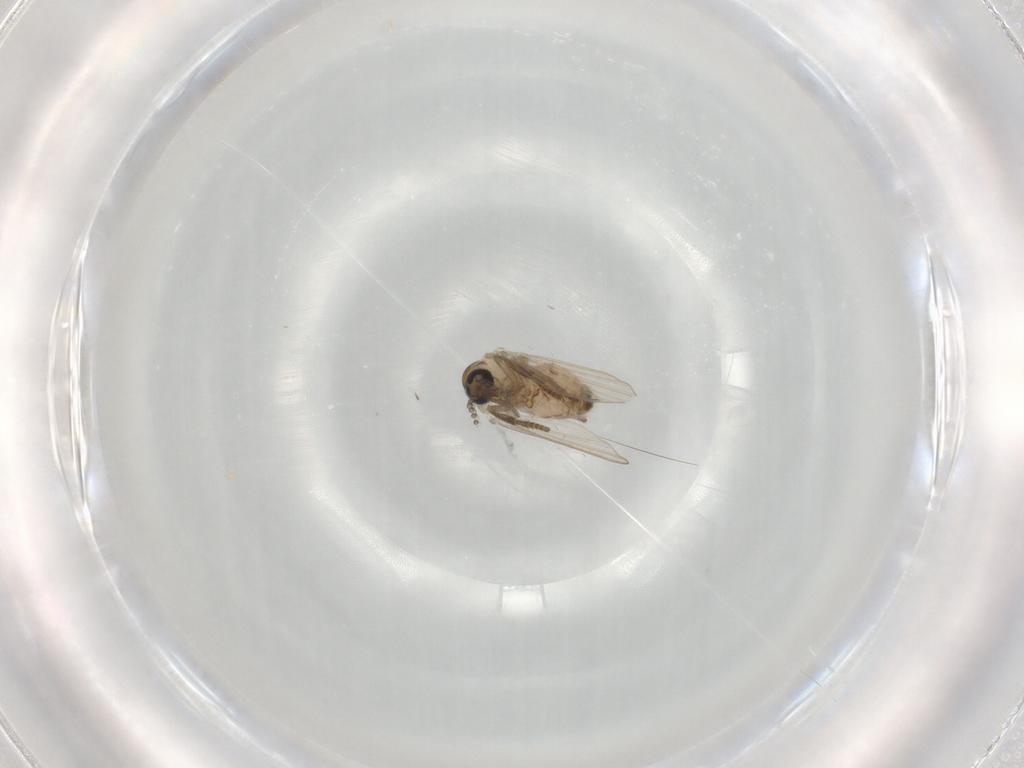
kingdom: Animalia
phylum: Arthropoda
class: Insecta
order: Diptera
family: Psychodidae
